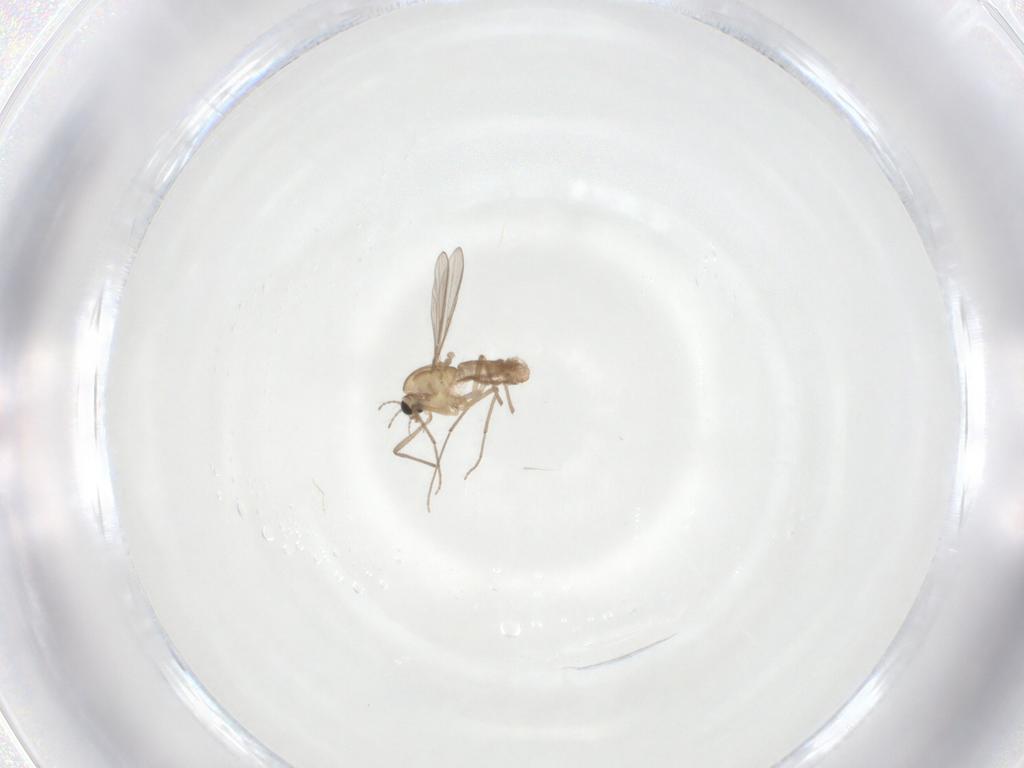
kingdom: Animalia
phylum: Arthropoda
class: Insecta
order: Diptera
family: Chironomidae
